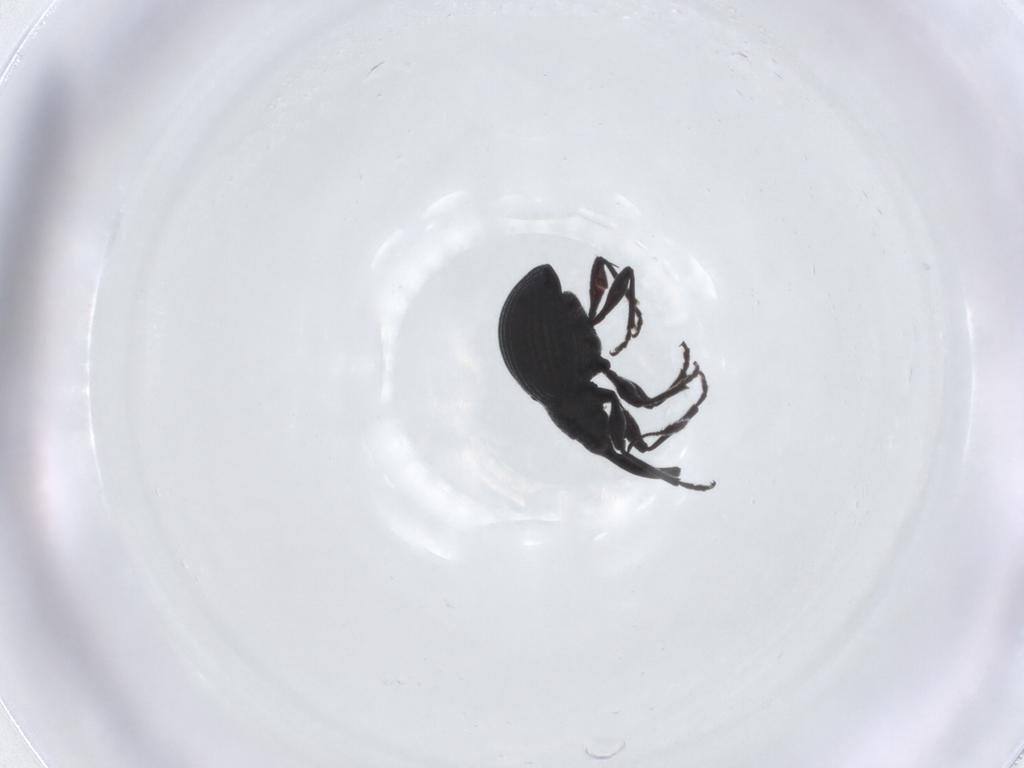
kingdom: Animalia
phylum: Arthropoda
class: Insecta
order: Coleoptera
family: Brentidae
